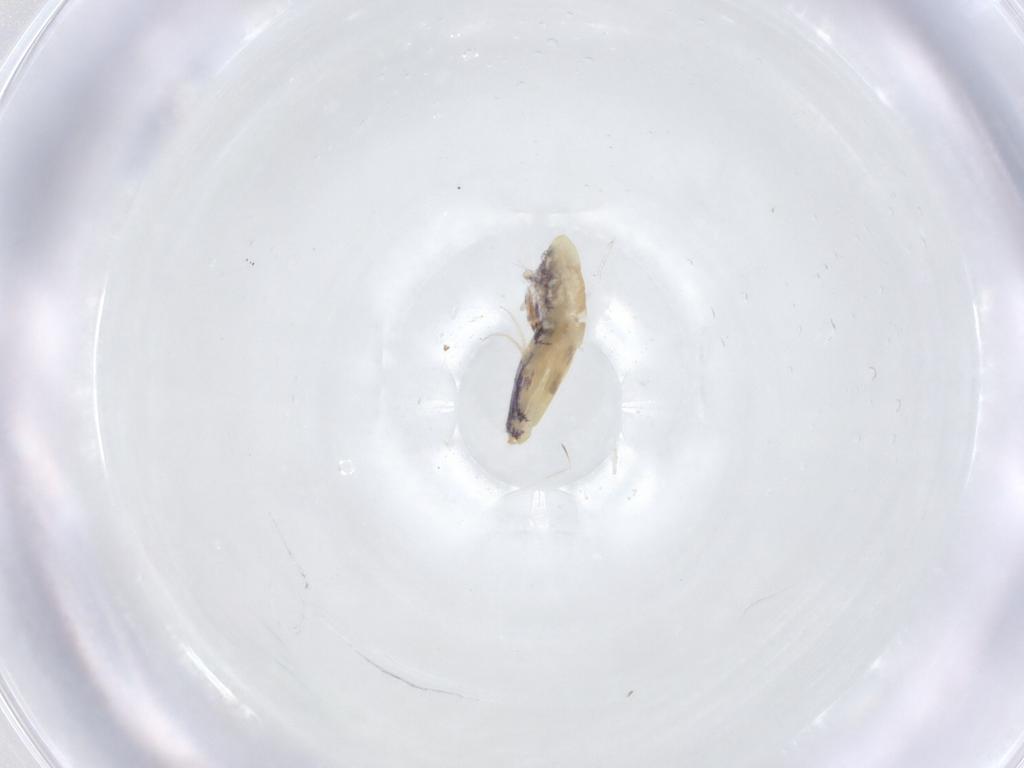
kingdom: Animalia
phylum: Arthropoda
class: Collembola
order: Entomobryomorpha
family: Entomobryidae
